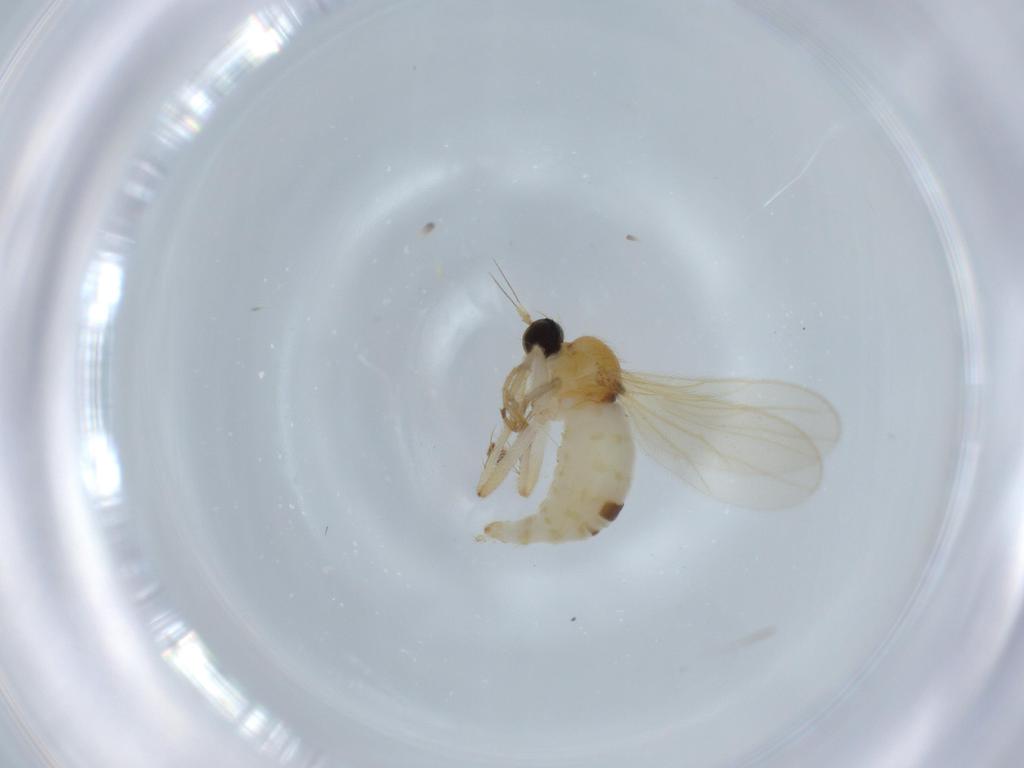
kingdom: Animalia
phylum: Arthropoda
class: Insecta
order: Diptera
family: Hybotidae
